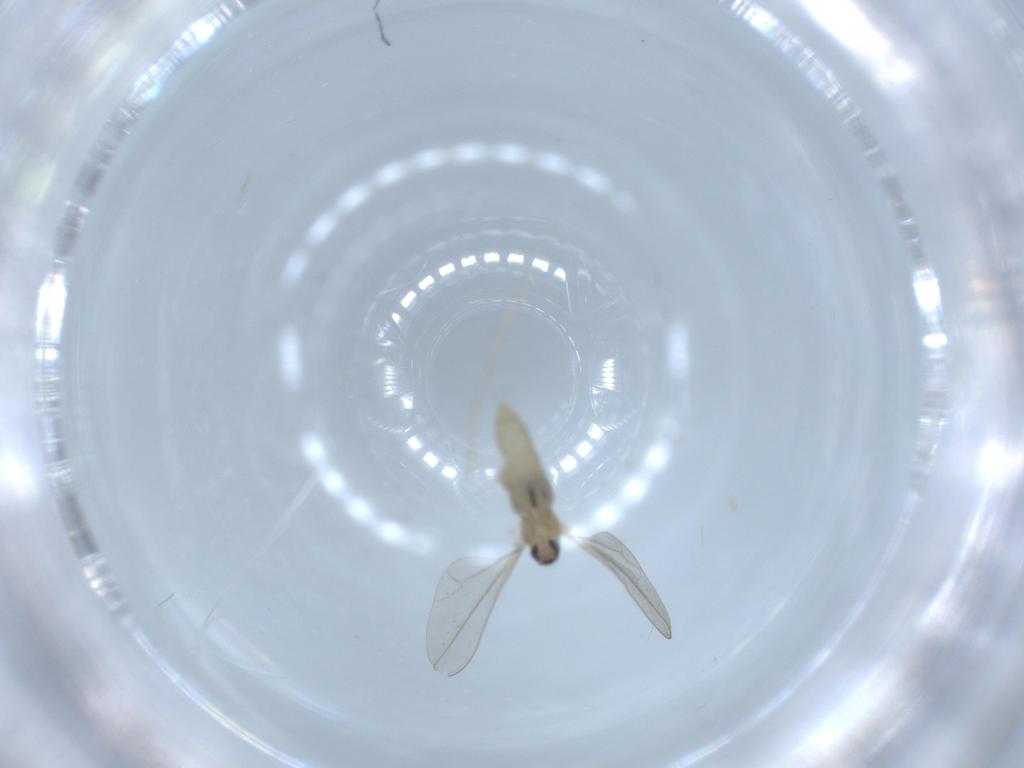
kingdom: Animalia
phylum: Arthropoda
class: Insecta
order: Diptera
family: Cecidomyiidae
